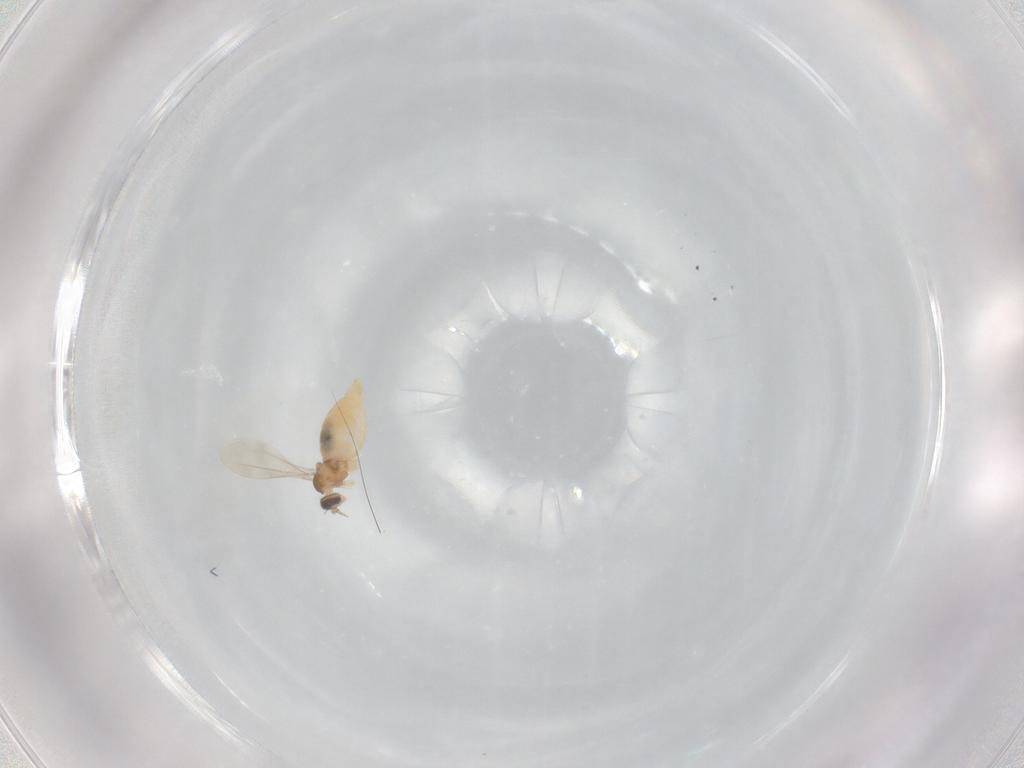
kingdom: Animalia
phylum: Arthropoda
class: Insecta
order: Diptera
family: Cecidomyiidae
